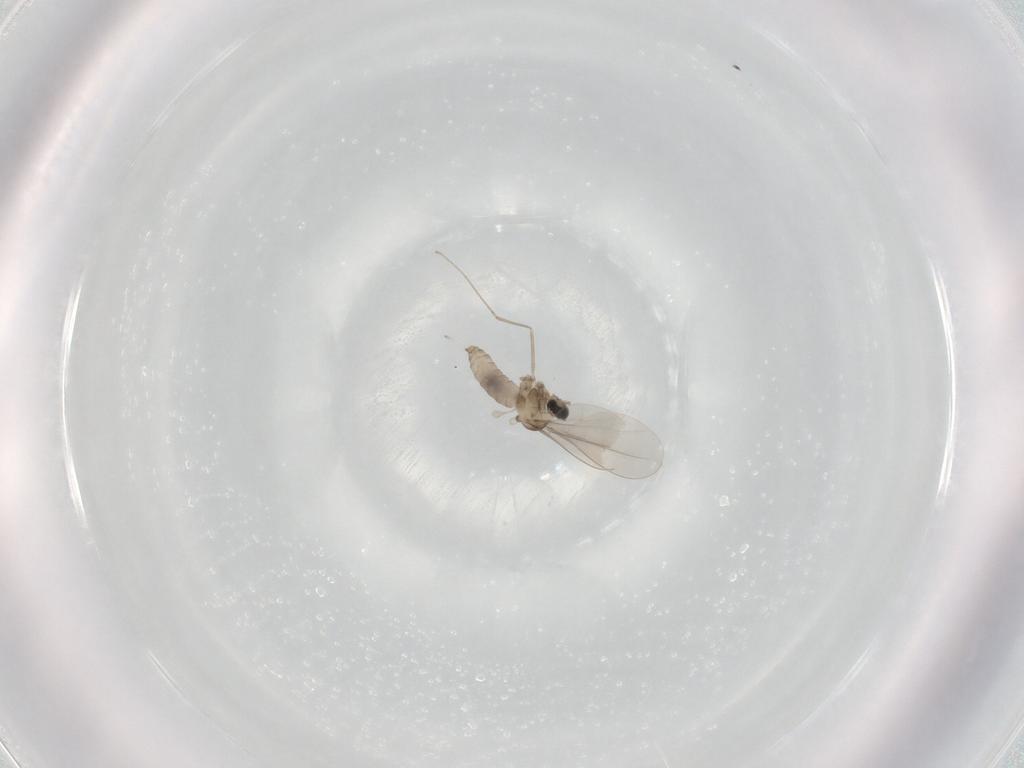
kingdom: Animalia
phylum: Arthropoda
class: Insecta
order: Diptera
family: Cecidomyiidae
